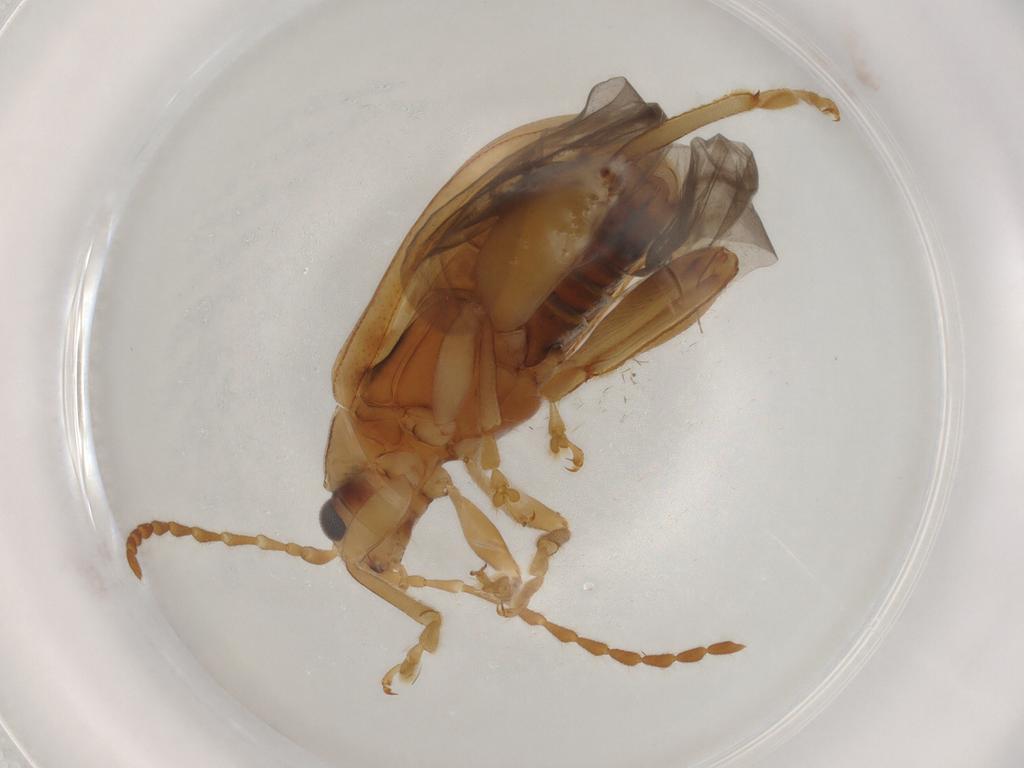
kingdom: Animalia
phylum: Arthropoda
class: Insecta
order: Coleoptera
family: Chrysomelidae
